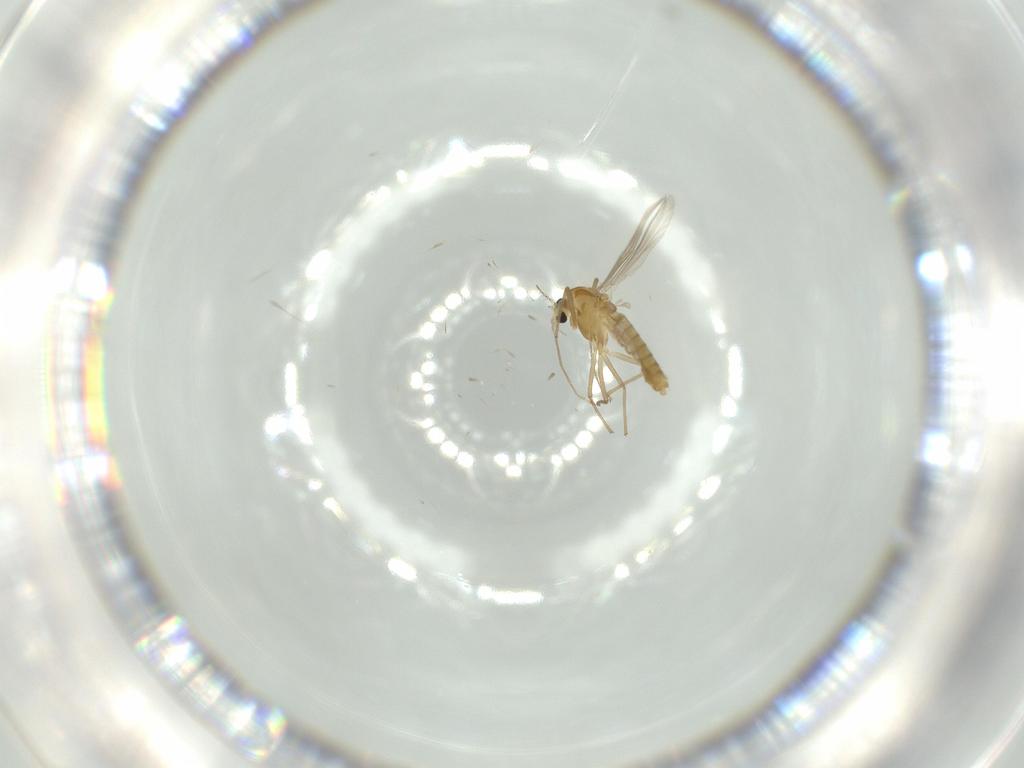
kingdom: Animalia
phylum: Arthropoda
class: Insecta
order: Diptera
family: Chironomidae
